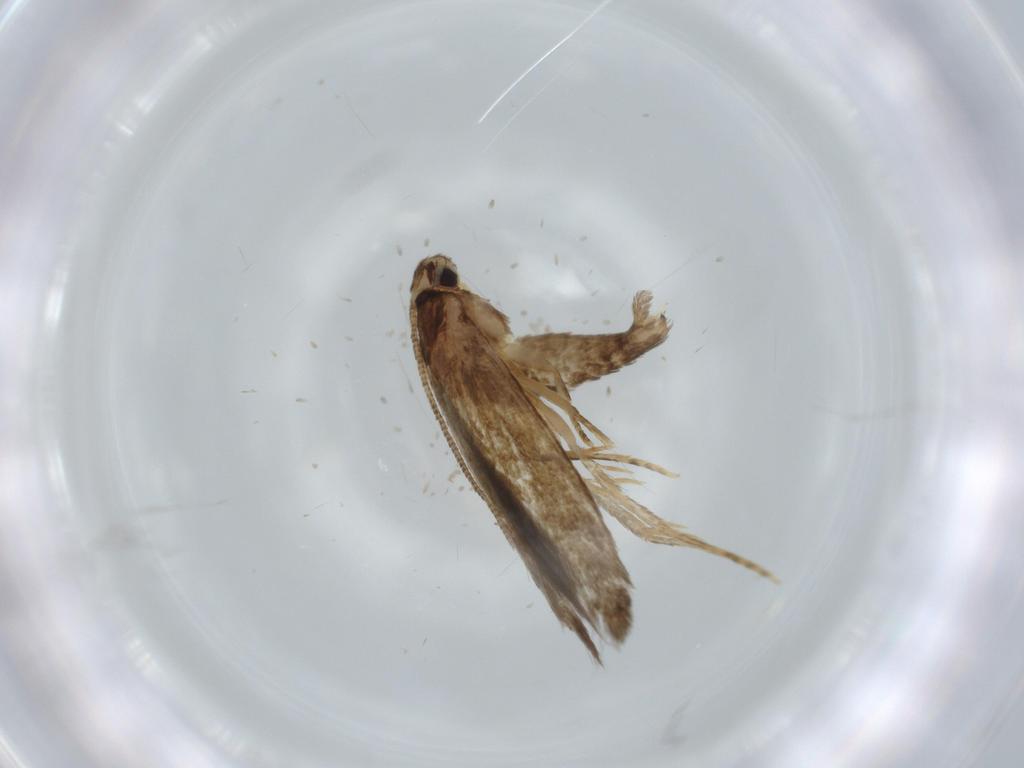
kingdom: Animalia
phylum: Arthropoda
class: Insecta
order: Lepidoptera
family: Tineidae
